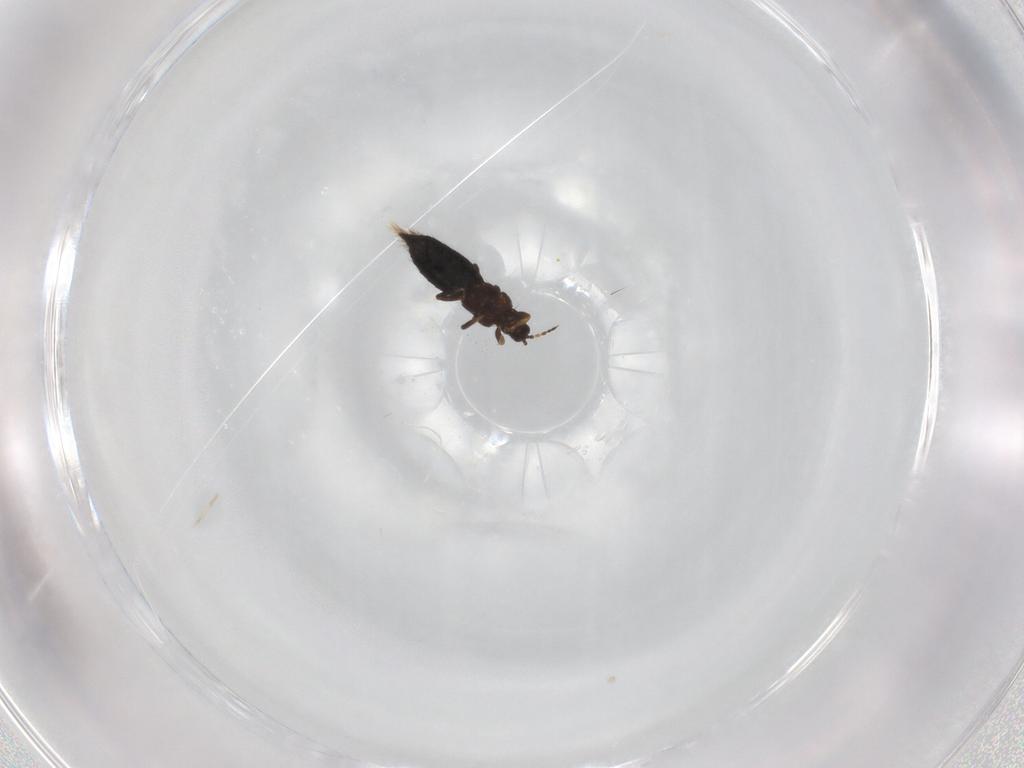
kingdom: Animalia
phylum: Arthropoda
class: Insecta
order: Thysanoptera
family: Thripidae
